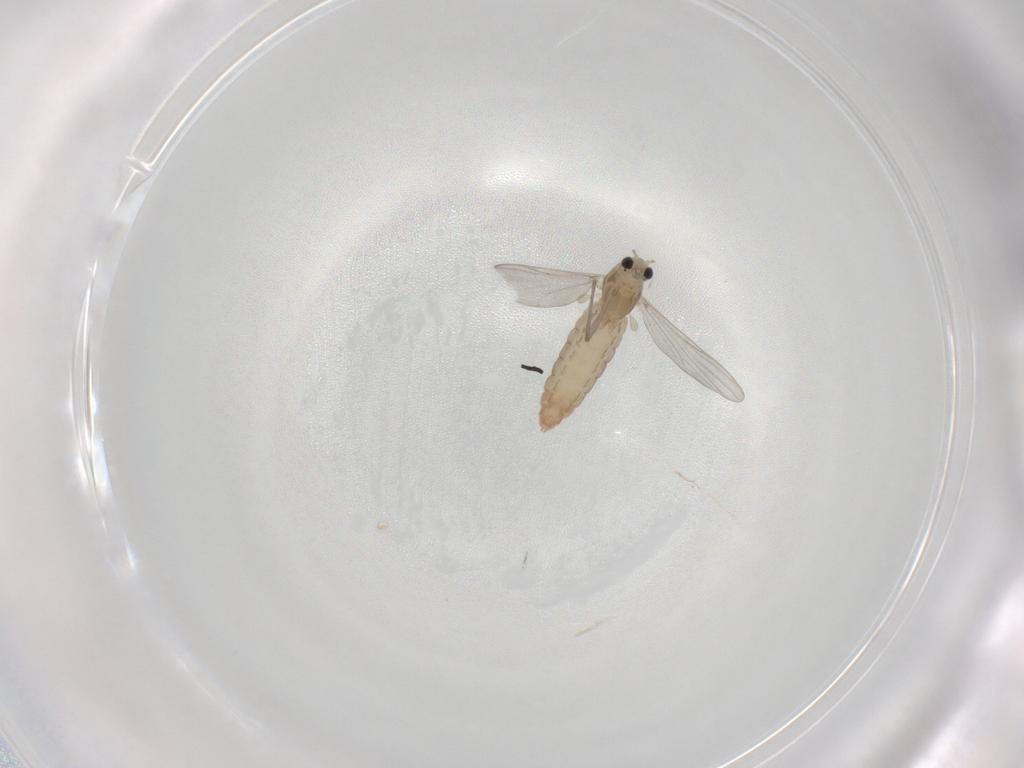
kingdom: Animalia
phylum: Arthropoda
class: Insecta
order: Diptera
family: Chironomidae
